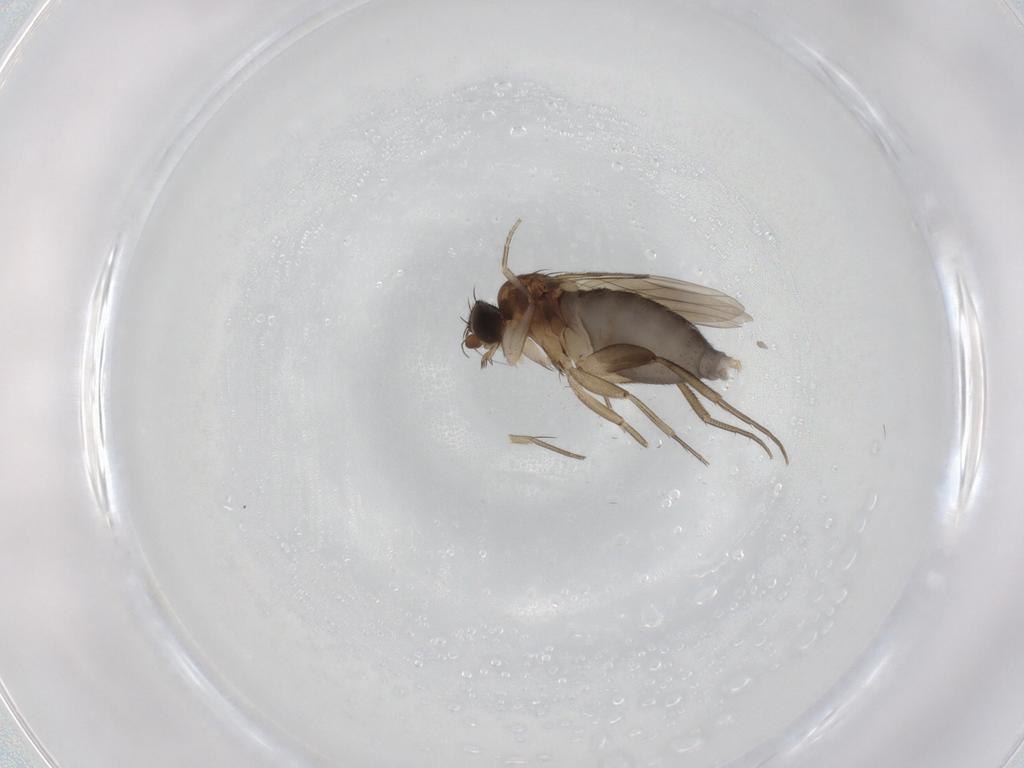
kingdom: Animalia
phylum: Arthropoda
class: Insecta
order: Diptera
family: Phoridae
